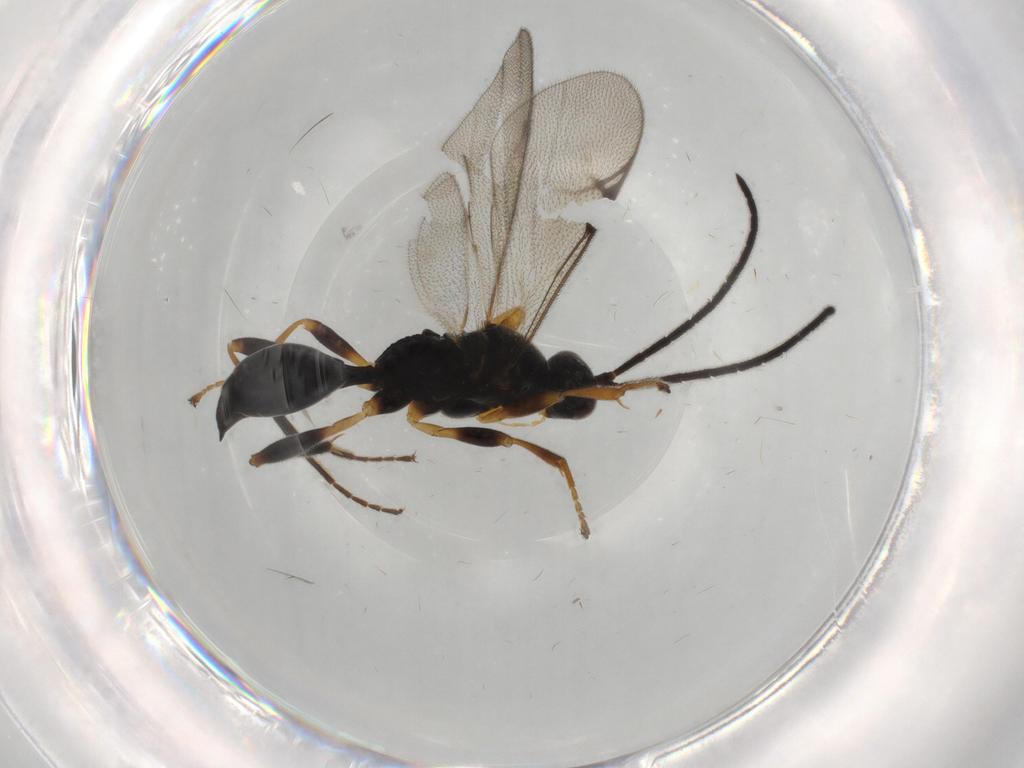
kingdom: Animalia
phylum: Arthropoda
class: Insecta
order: Hymenoptera
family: Proctotrupidae
